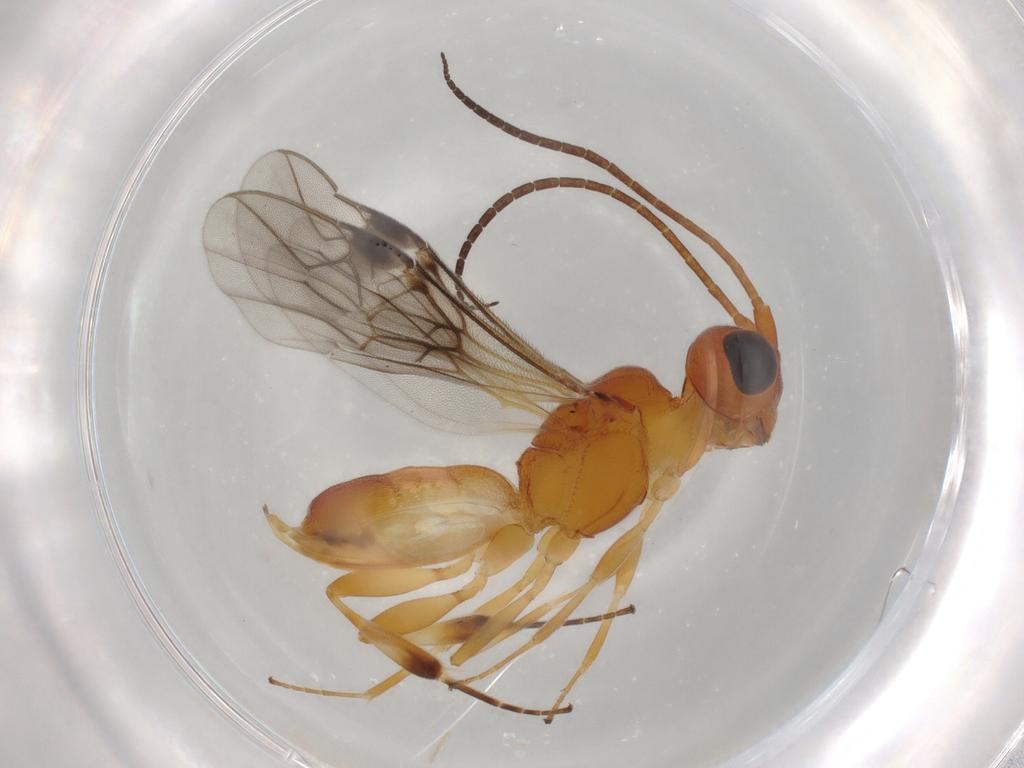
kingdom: Animalia
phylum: Arthropoda
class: Insecta
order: Hymenoptera
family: Braconidae
